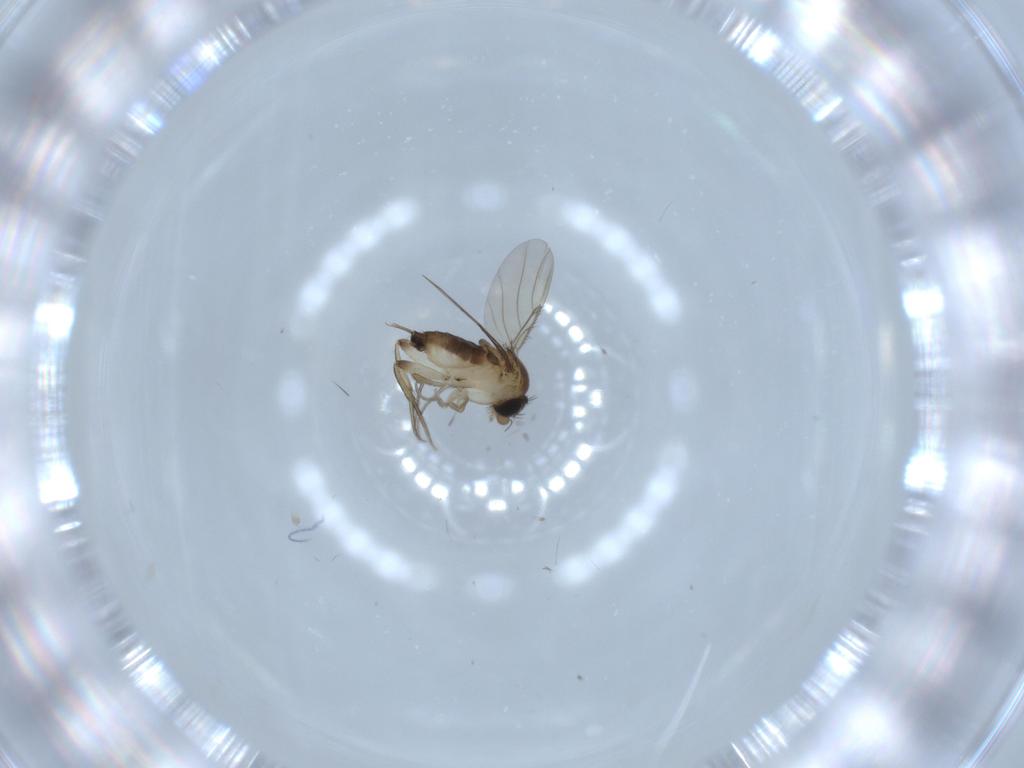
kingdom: Animalia
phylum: Arthropoda
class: Insecta
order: Diptera
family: Phoridae
